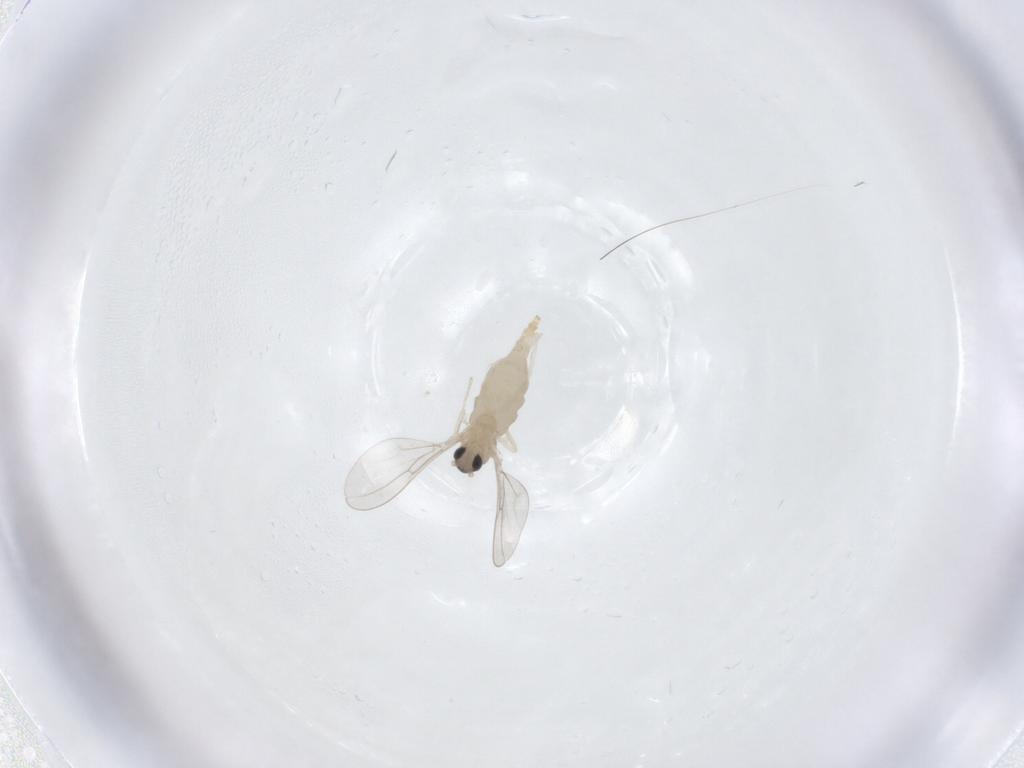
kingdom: Animalia
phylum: Arthropoda
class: Insecta
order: Diptera
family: Cecidomyiidae
